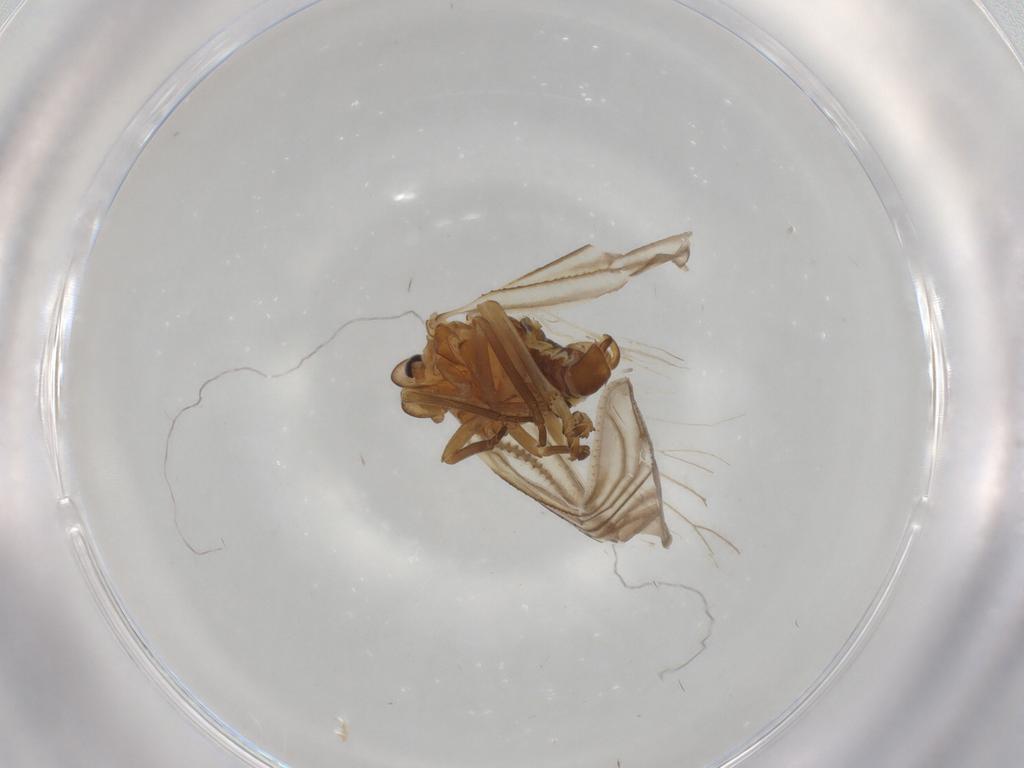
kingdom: Animalia
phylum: Arthropoda
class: Insecta
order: Hemiptera
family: Meenoplidae
